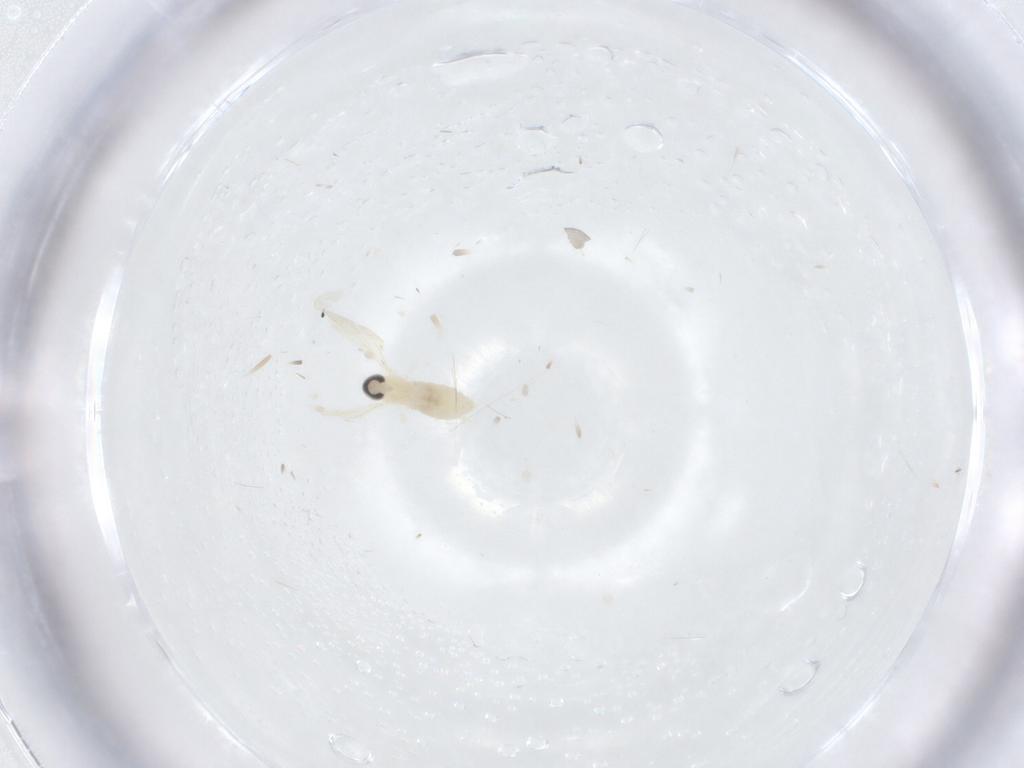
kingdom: Animalia
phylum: Arthropoda
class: Insecta
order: Diptera
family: Cecidomyiidae
